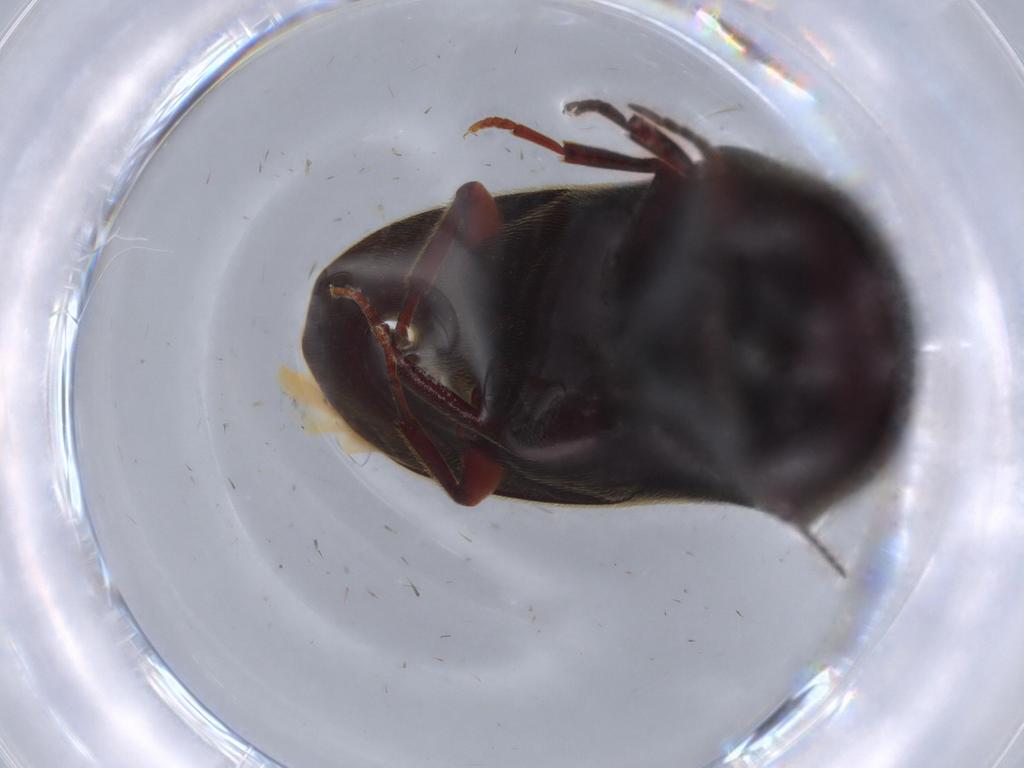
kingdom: Animalia
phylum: Arthropoda
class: Insecta
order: Coleoptera
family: Eucnemidae
